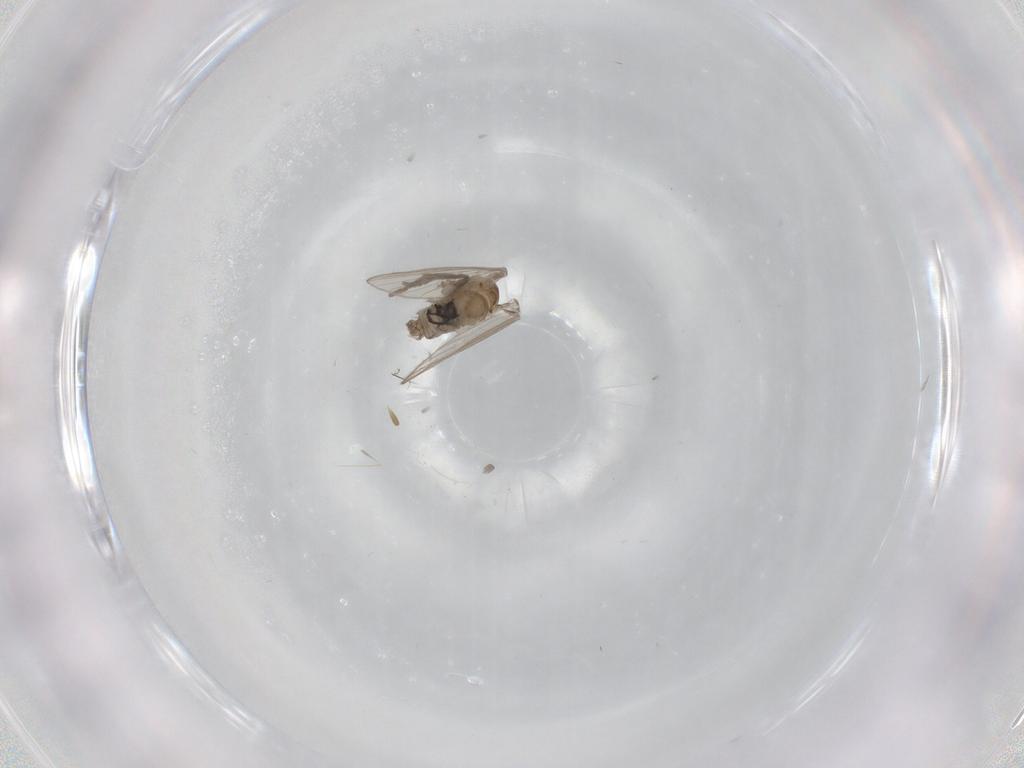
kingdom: Animalia
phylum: Arthropoda
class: Insecta
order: Diptera
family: Psychodidae
